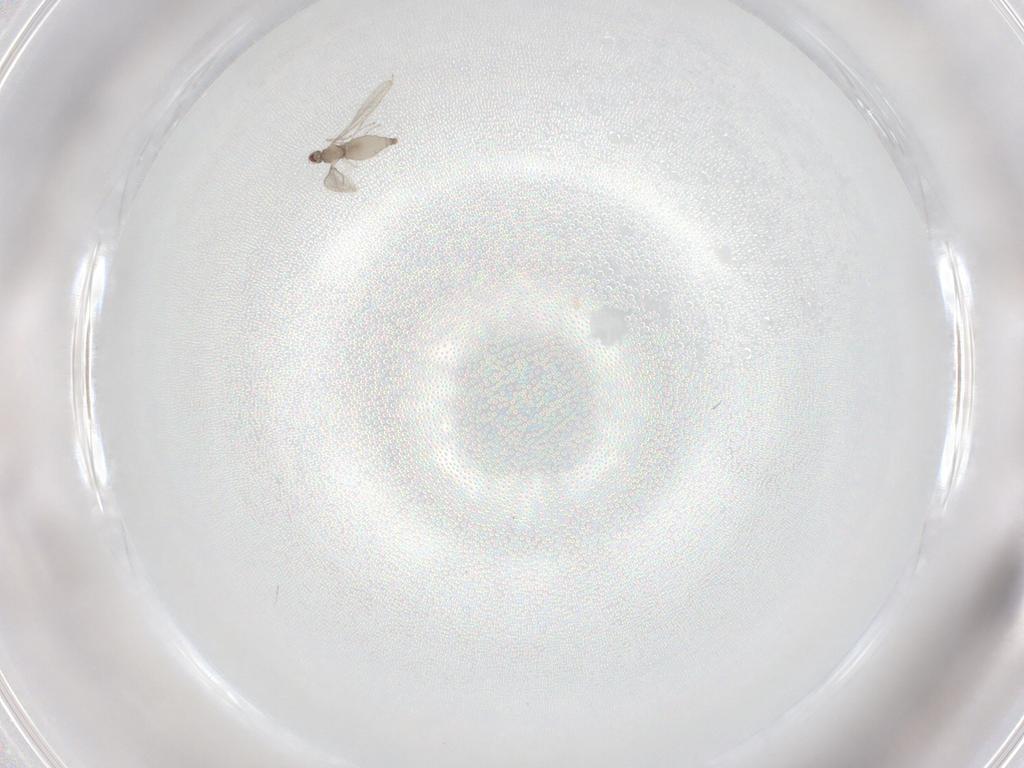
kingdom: Animalia
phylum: Arthropoda
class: Insecta
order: Diptera
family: Cecidomyiidae
